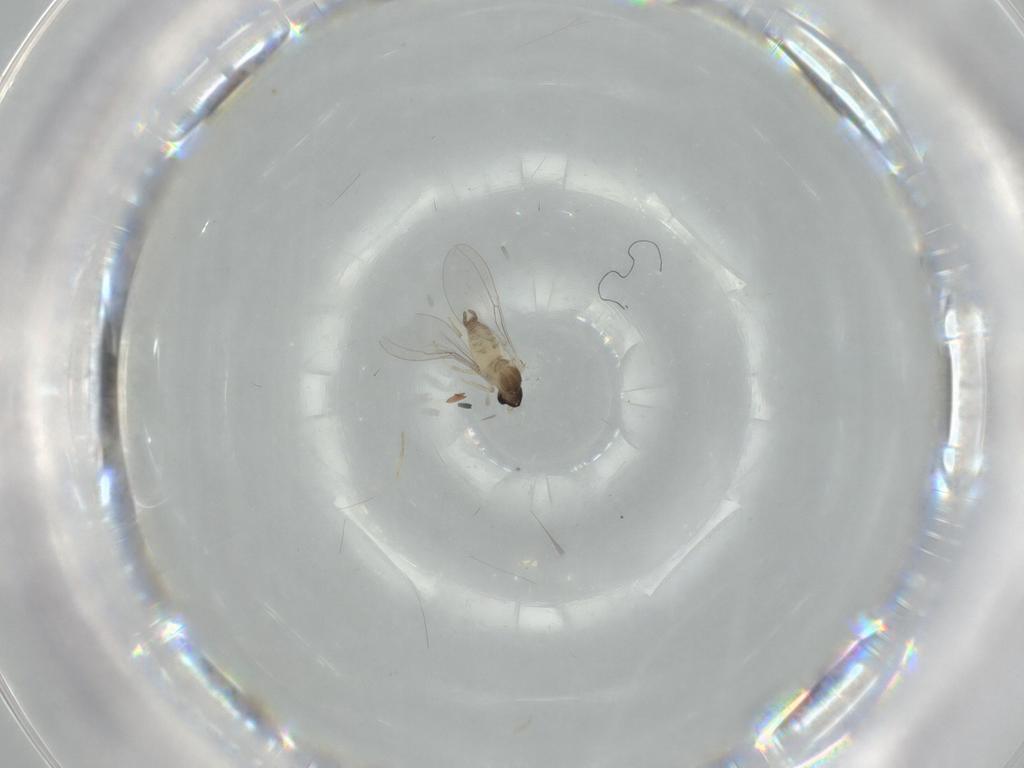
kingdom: Animalia
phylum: Arthropoda
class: Insecta
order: Diptera
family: Cecidomyiidae
